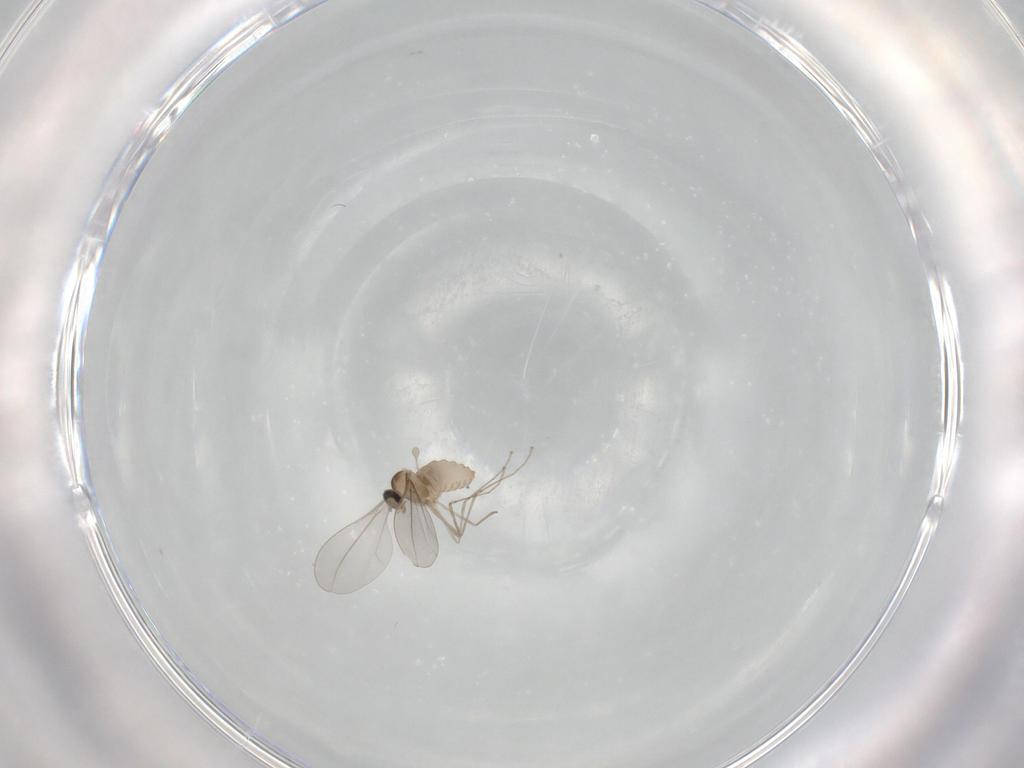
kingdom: Animalia
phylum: Arthropoda
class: Insecta
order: Diptera
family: Cecidomyiidae
